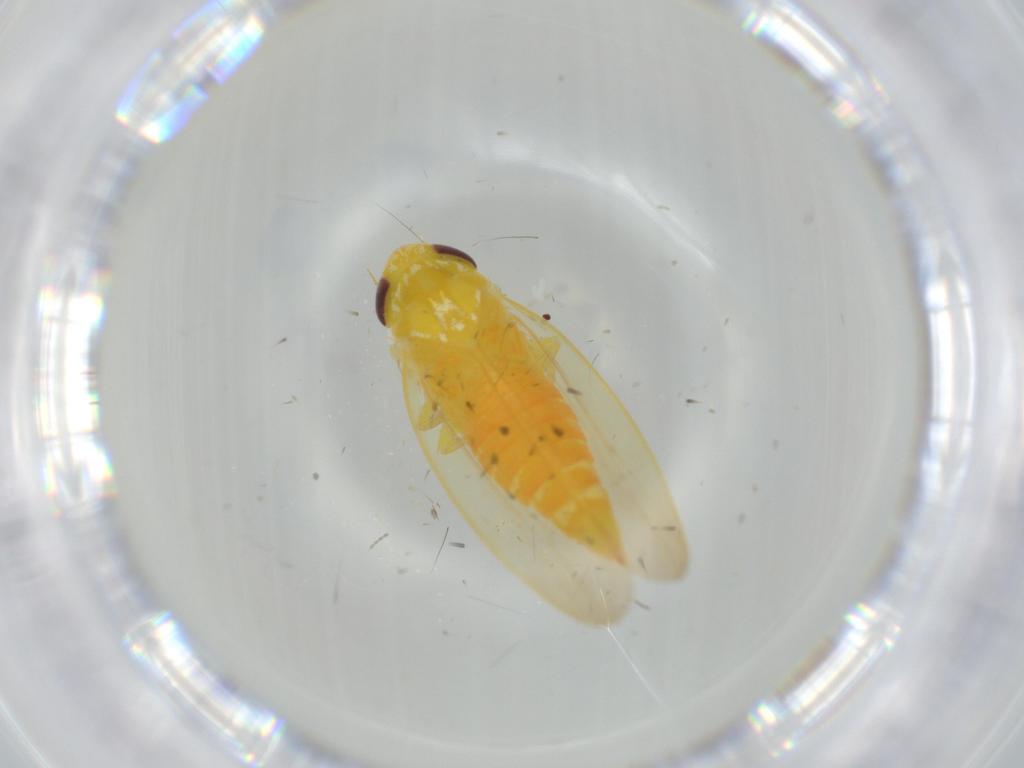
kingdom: Animalia
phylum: Arthropoda
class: Insecta
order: Hemiptera
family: Cicadellidae
